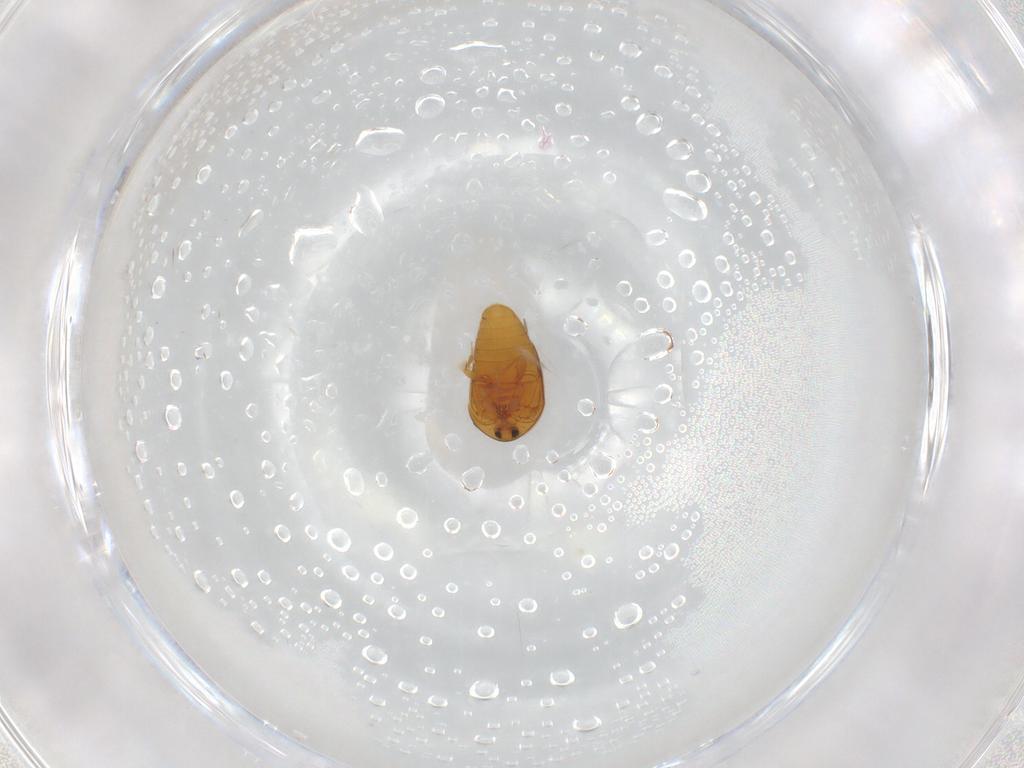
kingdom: Animalia
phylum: Arthropoda
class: Insecta
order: Coleoptera
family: Corylophidae
